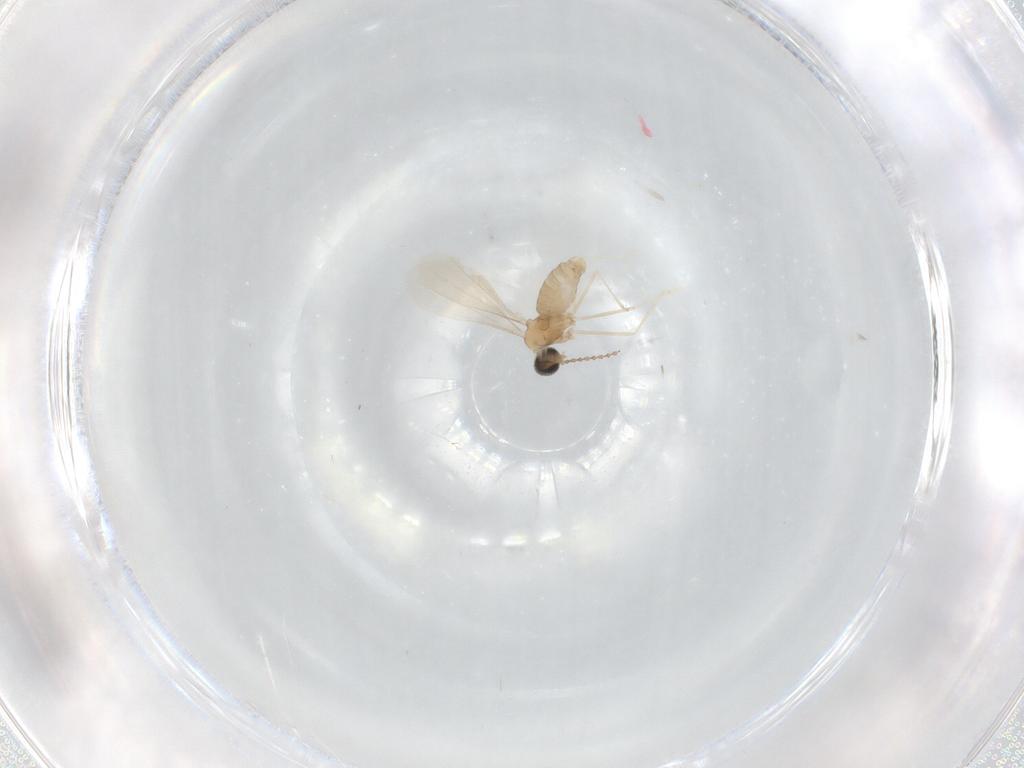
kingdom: Animalia
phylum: Arthropoda
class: Insecta
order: Diptera
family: Cecidomyiidae
